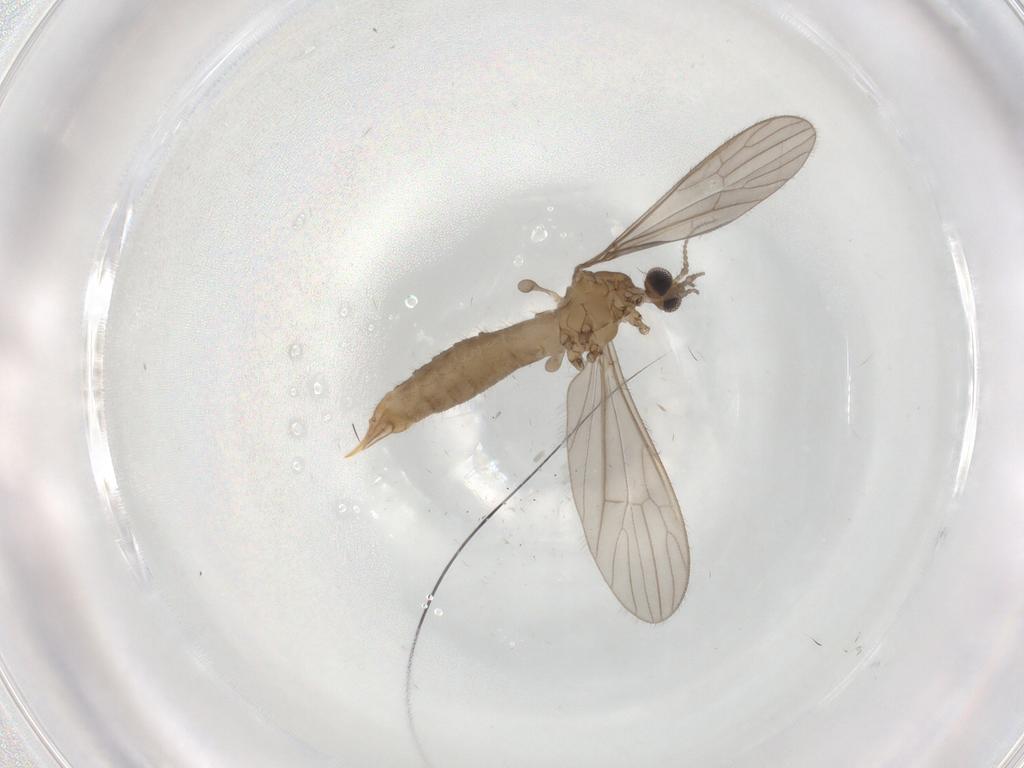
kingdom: Animalia
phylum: Arthropoda
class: Insecta
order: Diptera
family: Limoniidae
